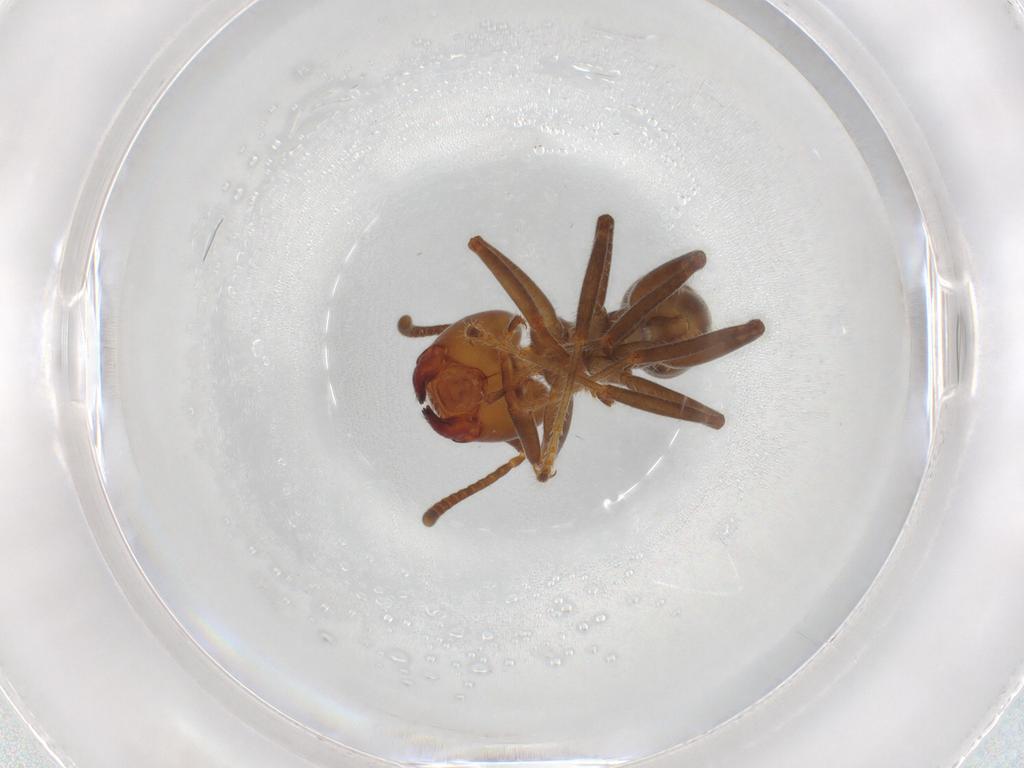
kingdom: Animalia
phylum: Arthropoda
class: Insecta
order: Hymenoptera
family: Formicidae
